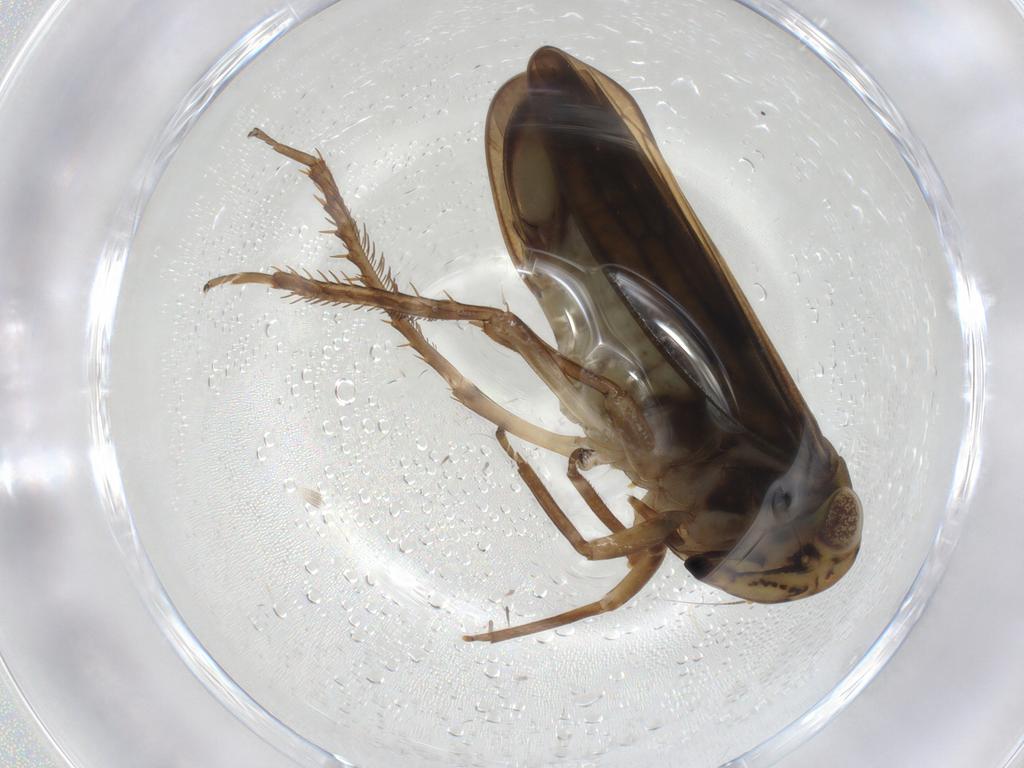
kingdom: Animalia
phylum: Arthropoda
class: Insecta
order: Hemiptera
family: Cicadellidae
